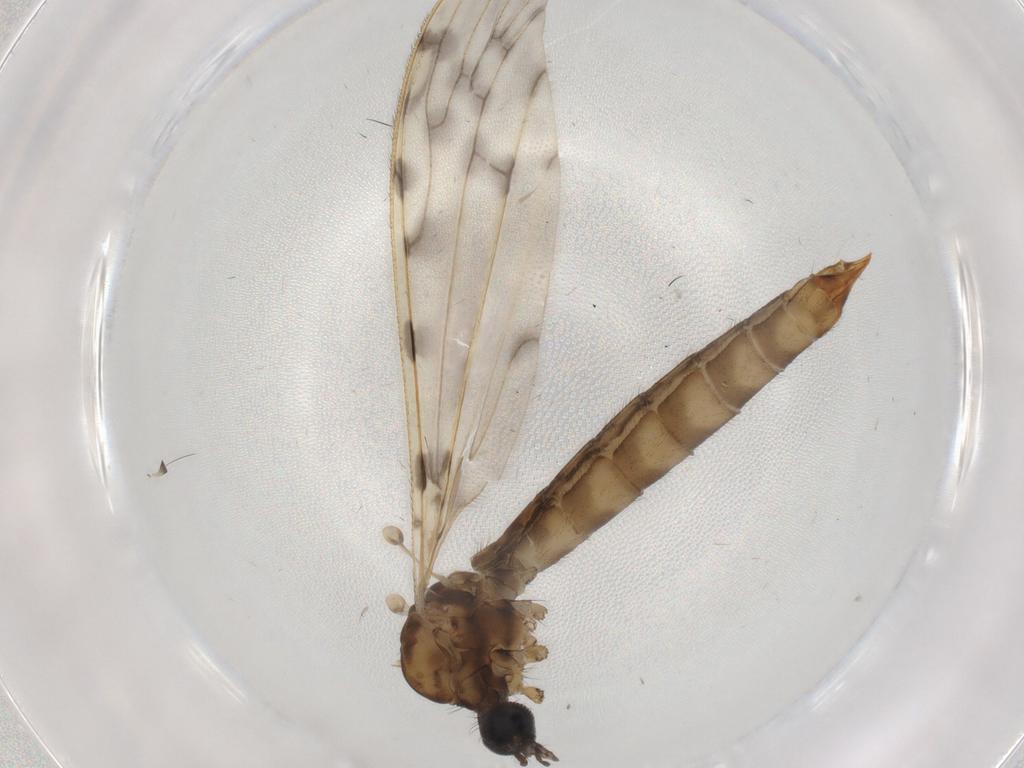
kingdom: Animalia
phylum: Arthropoda
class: Insecta
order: Diptera
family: Limoniidae
